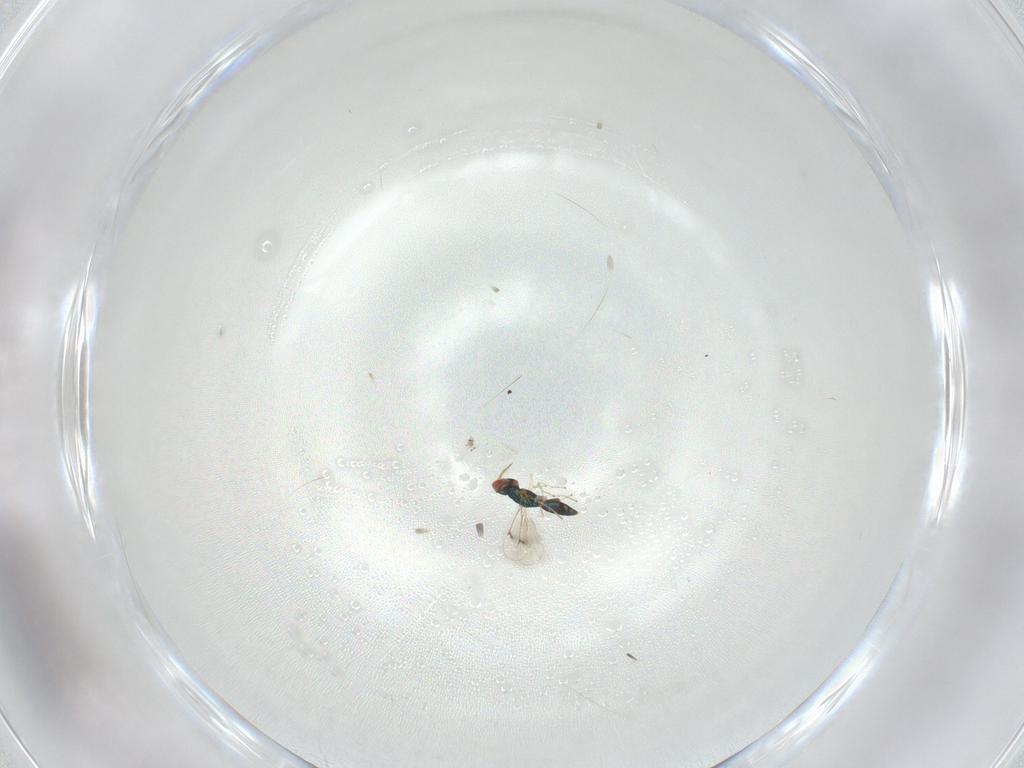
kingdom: Animalia
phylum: Arthropoda
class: Insecta
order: Hymenoptera
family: Eulophidae
